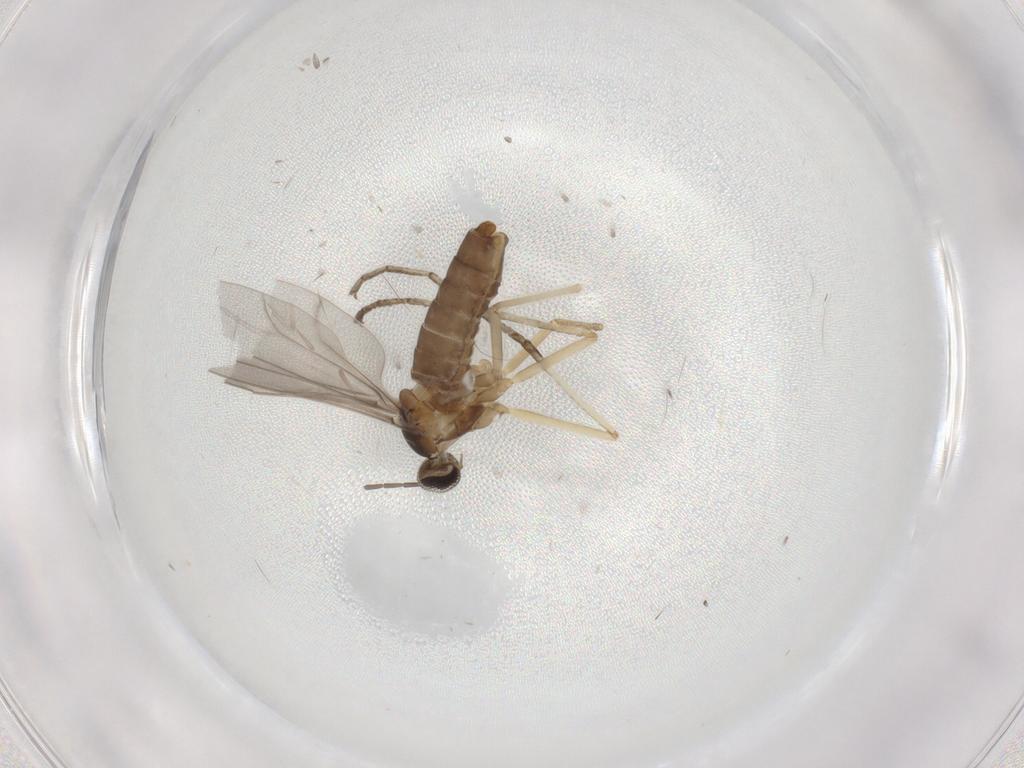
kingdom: Animalia
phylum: Arthropoda
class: Insecta
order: Diptera
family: Cecidomyiidae
